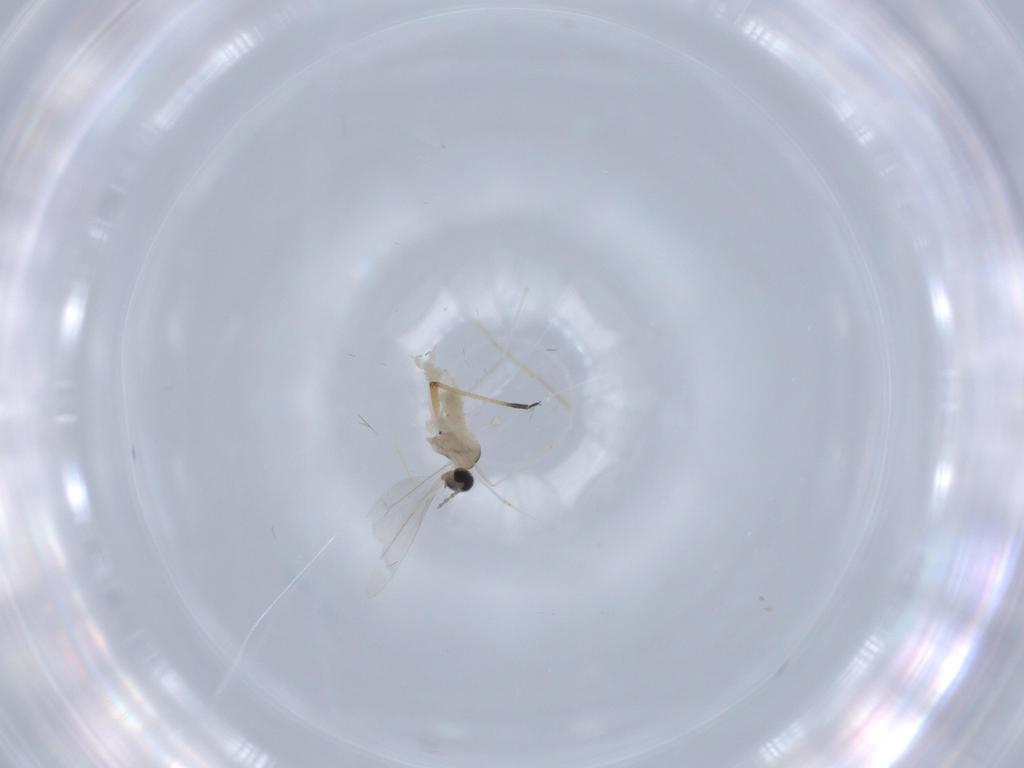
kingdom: Animalia
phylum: Arthropoda
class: Insecta
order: Diptera
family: Cecidomyiidae
